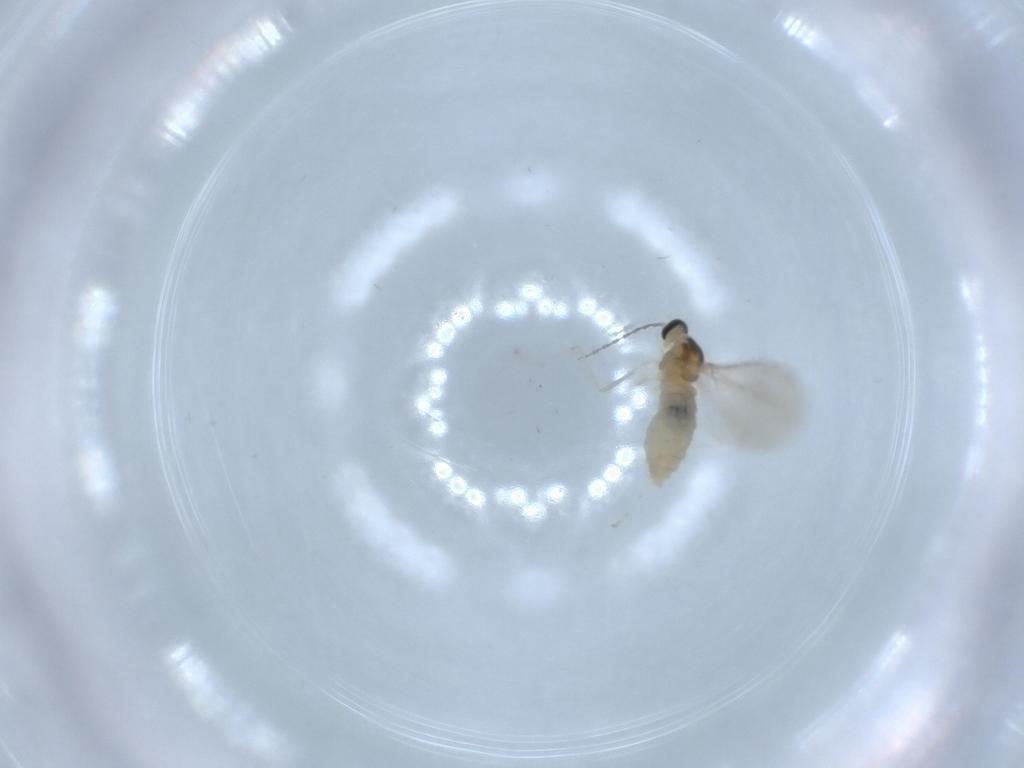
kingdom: Animalia
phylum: Arthropoda
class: Insecta
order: Diptera
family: Cecidomyiidae
